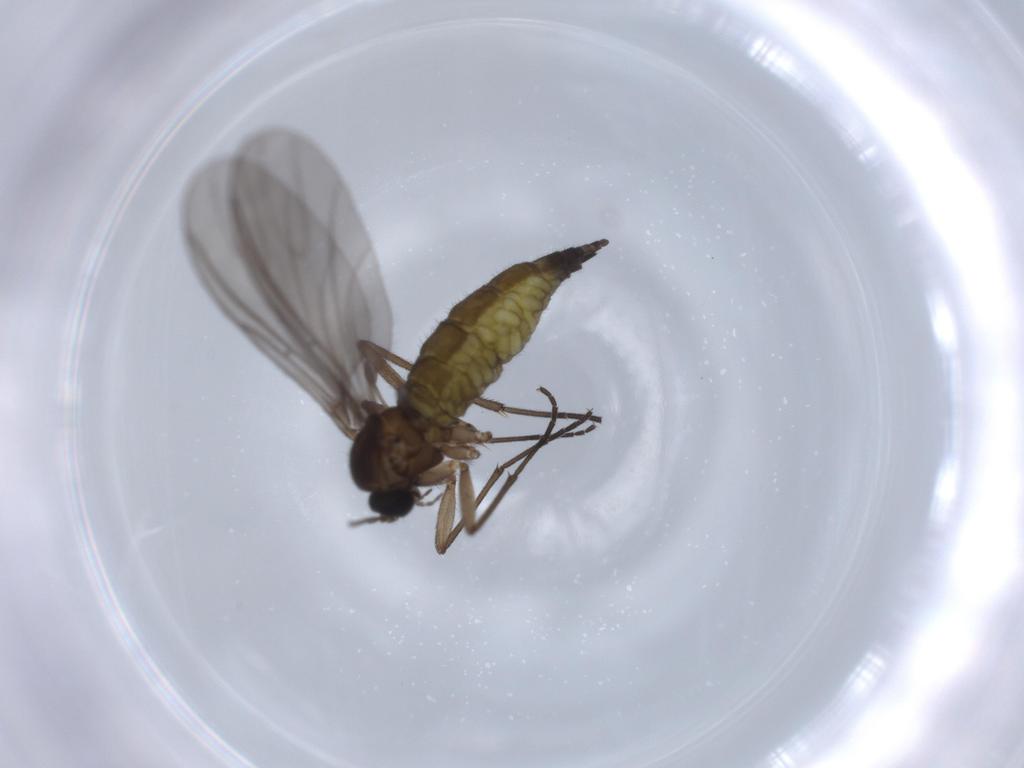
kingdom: Animalia
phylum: Arthropoda
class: Insecta
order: Diptera
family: Sciaridae
